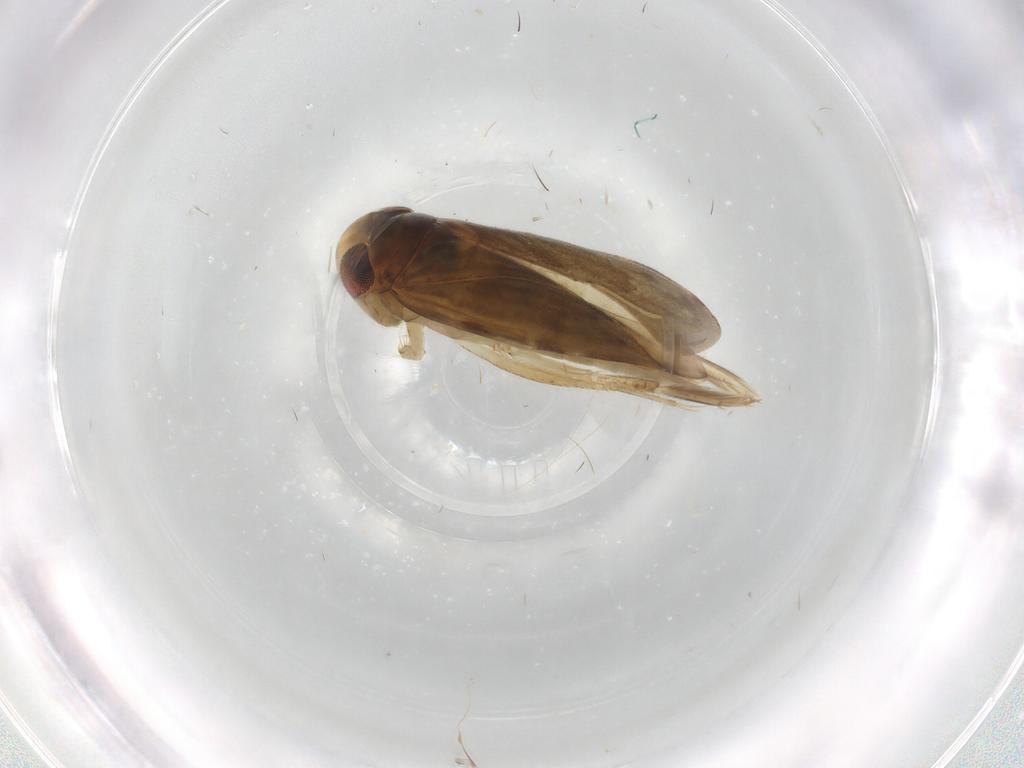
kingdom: Animalia
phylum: Arthropoda
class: Insecta
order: Hemiptera
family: Corixidae
